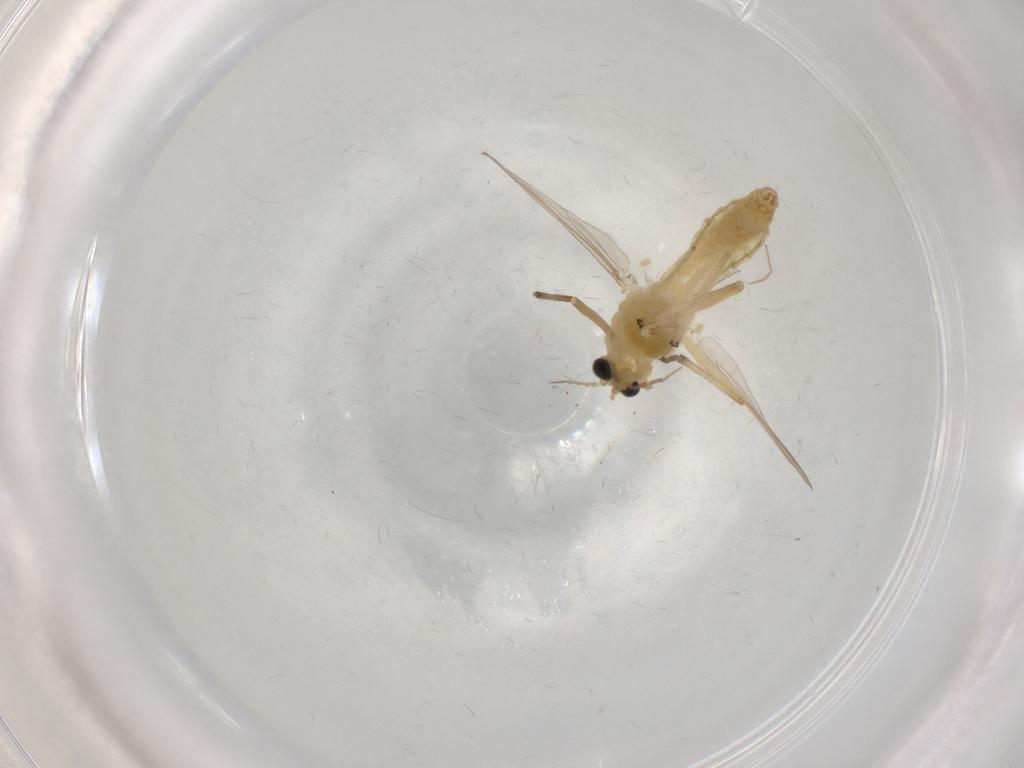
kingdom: Animalia
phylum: Arthropoda
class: Insecta
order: Diptera
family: Chironomidae
